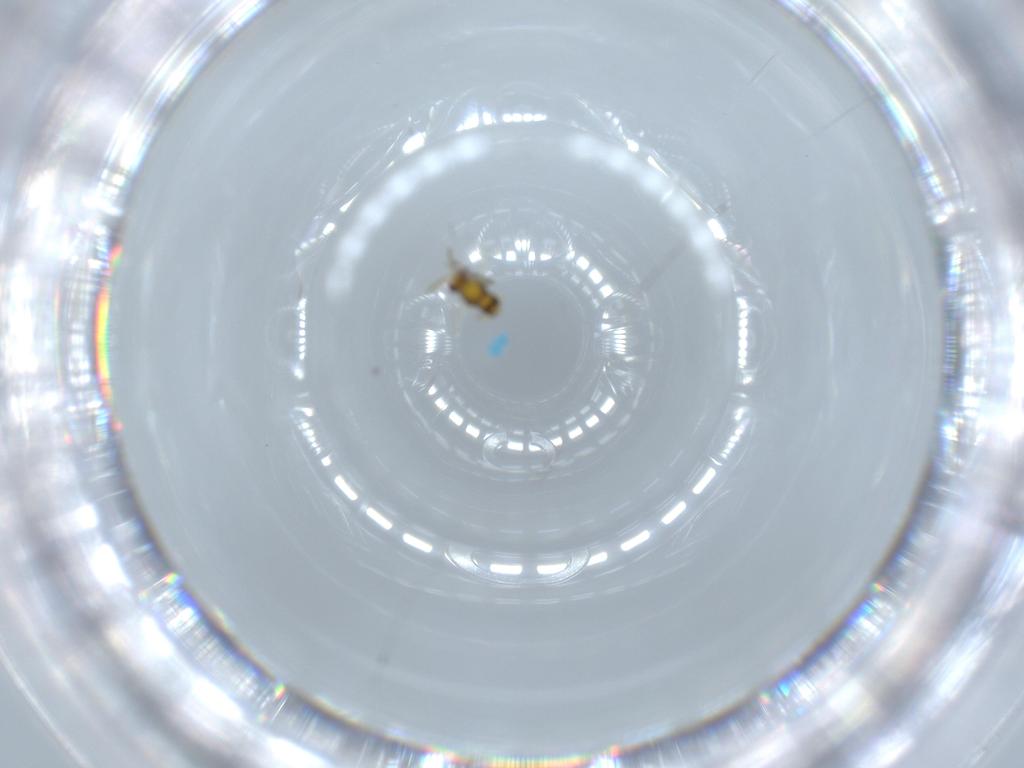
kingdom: Animalia
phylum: Arthropoda
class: Insecta
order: Hymenoptera
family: Aphelinidae
